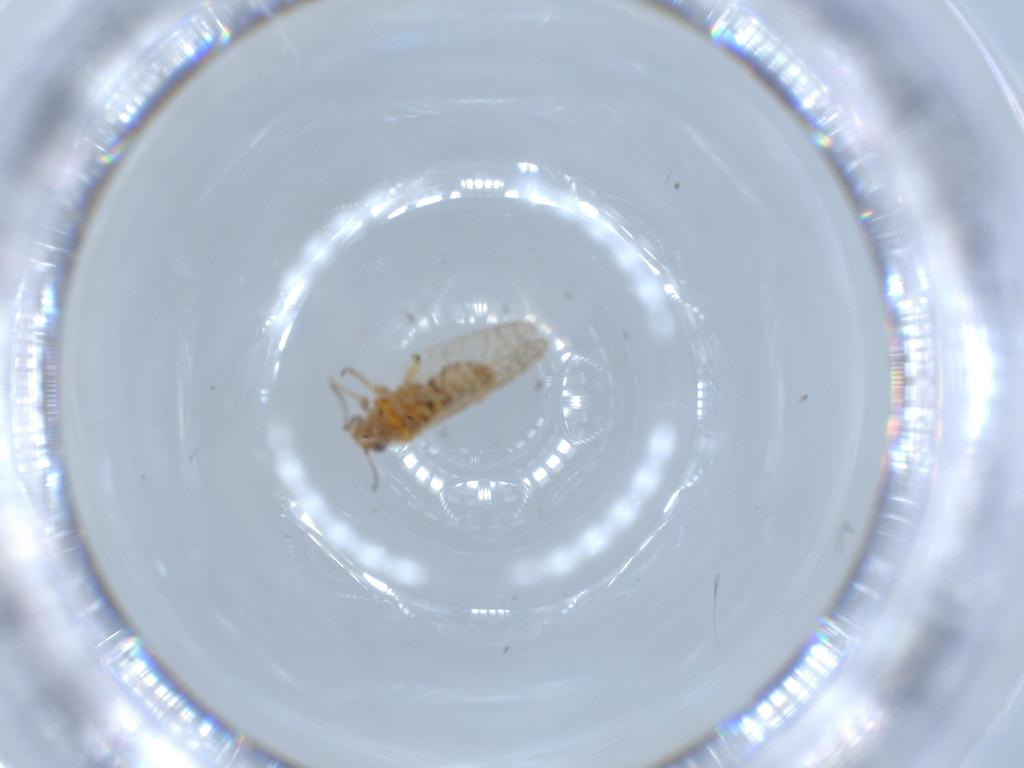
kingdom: Animalia
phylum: Arthropoda
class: Insecta
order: Hemiptera
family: Psyllidae
